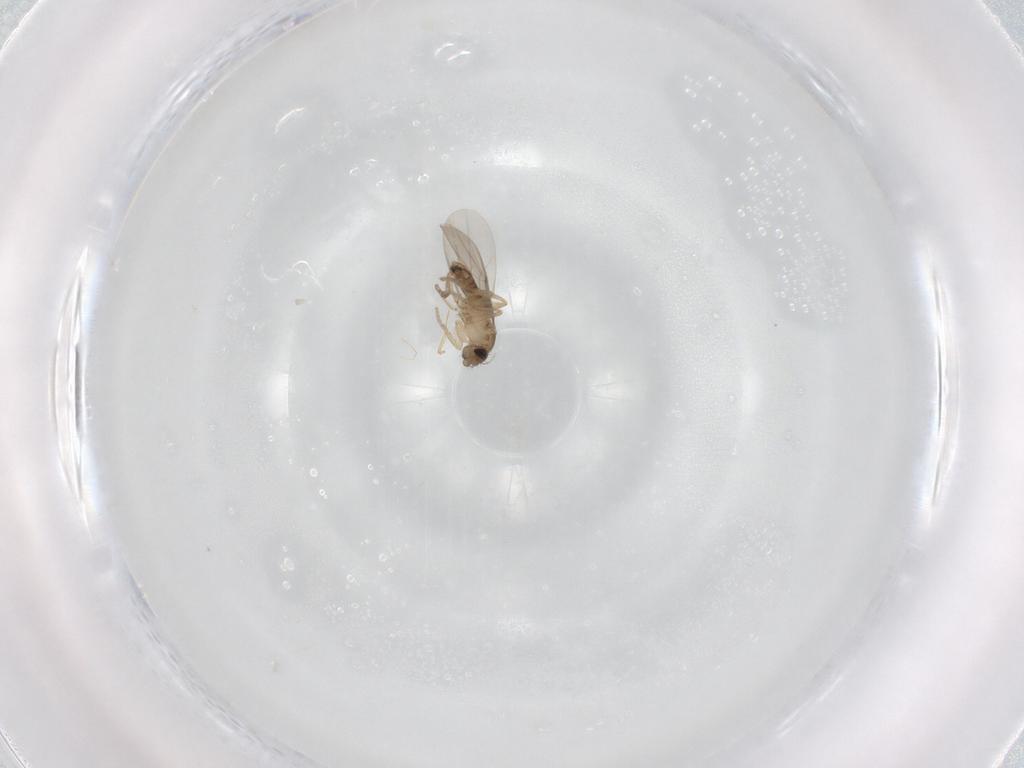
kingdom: Animalia
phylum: Arthropoda
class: Insecta
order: Diptera
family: Phoridae
